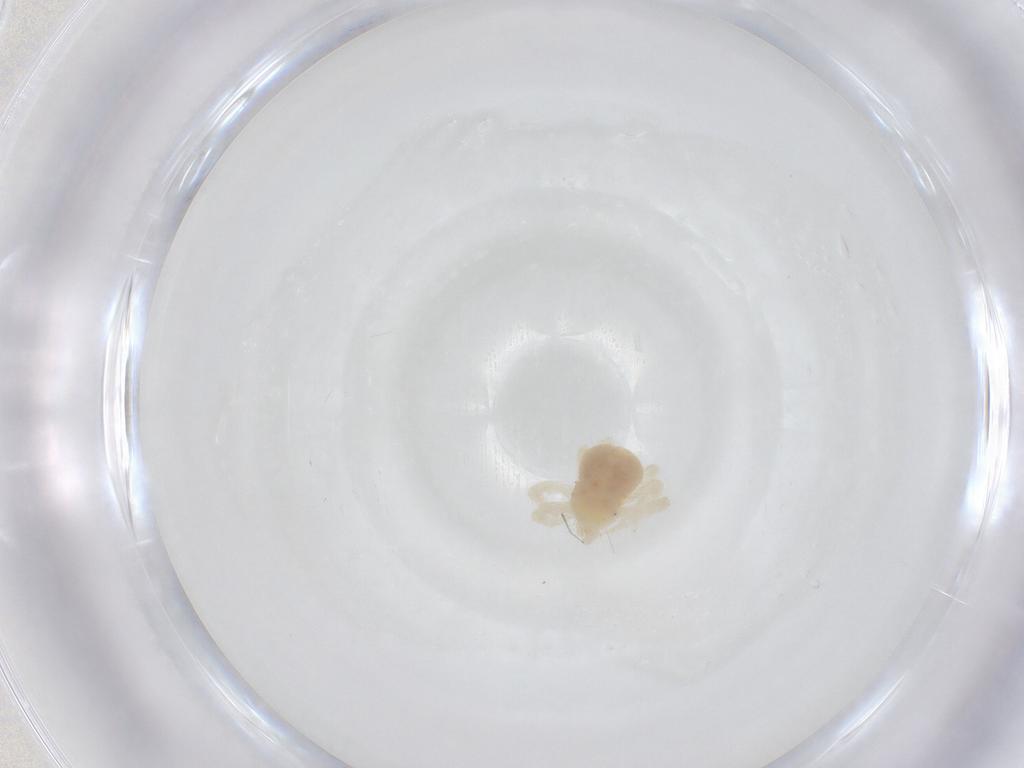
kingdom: Animalia
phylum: Arthropoda
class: Arachnida
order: Trombidiformes
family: Anystidae
